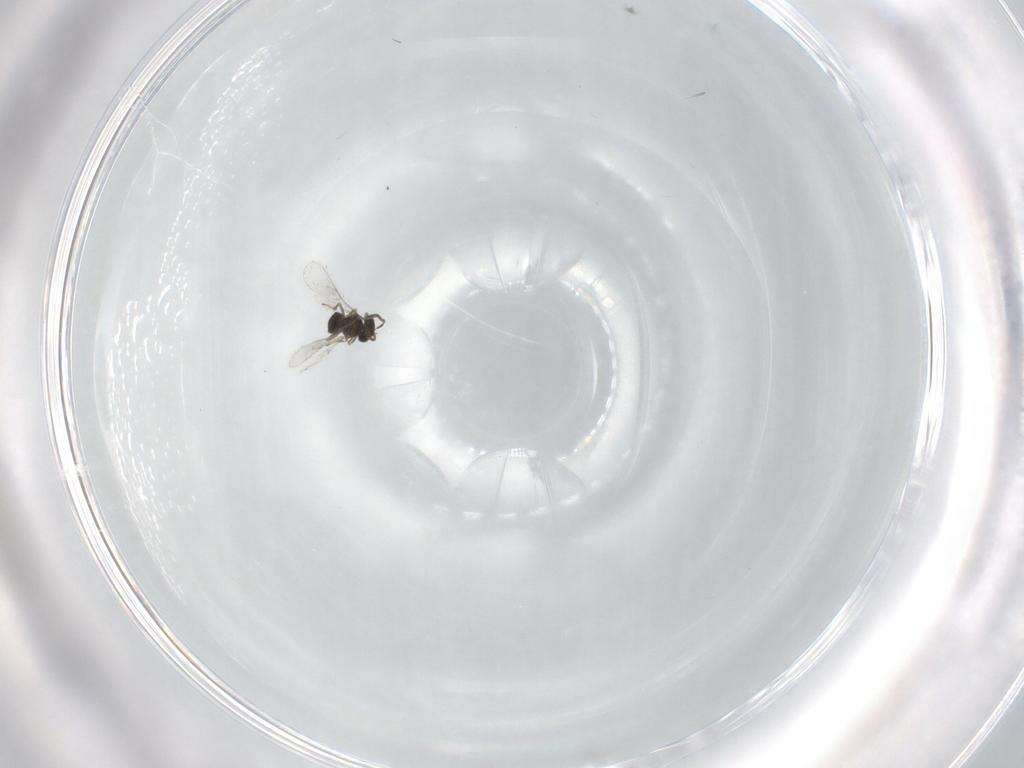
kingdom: Animalia
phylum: Arthropoda
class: Insecta
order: Hymenoptera
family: Scelionidae
